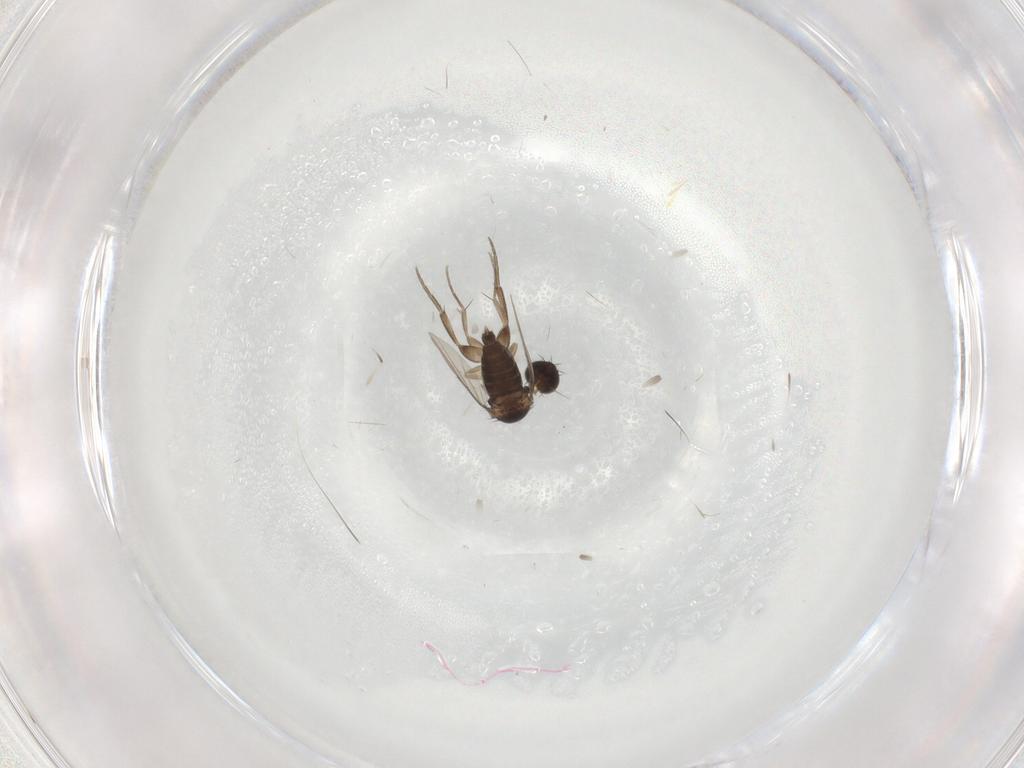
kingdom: Animalia
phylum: Arthropoda
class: Insecta
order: Diptera
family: Phoridae
